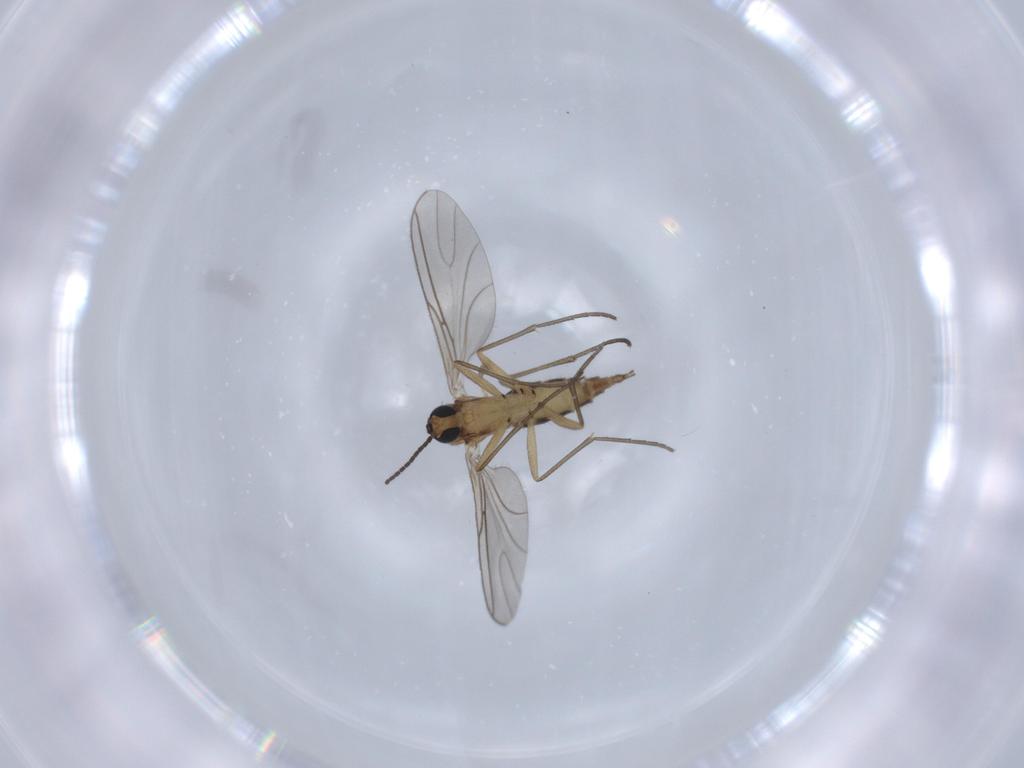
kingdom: Animalia
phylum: Arthropoda
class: Insecta
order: Diptera
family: Sciaridae
